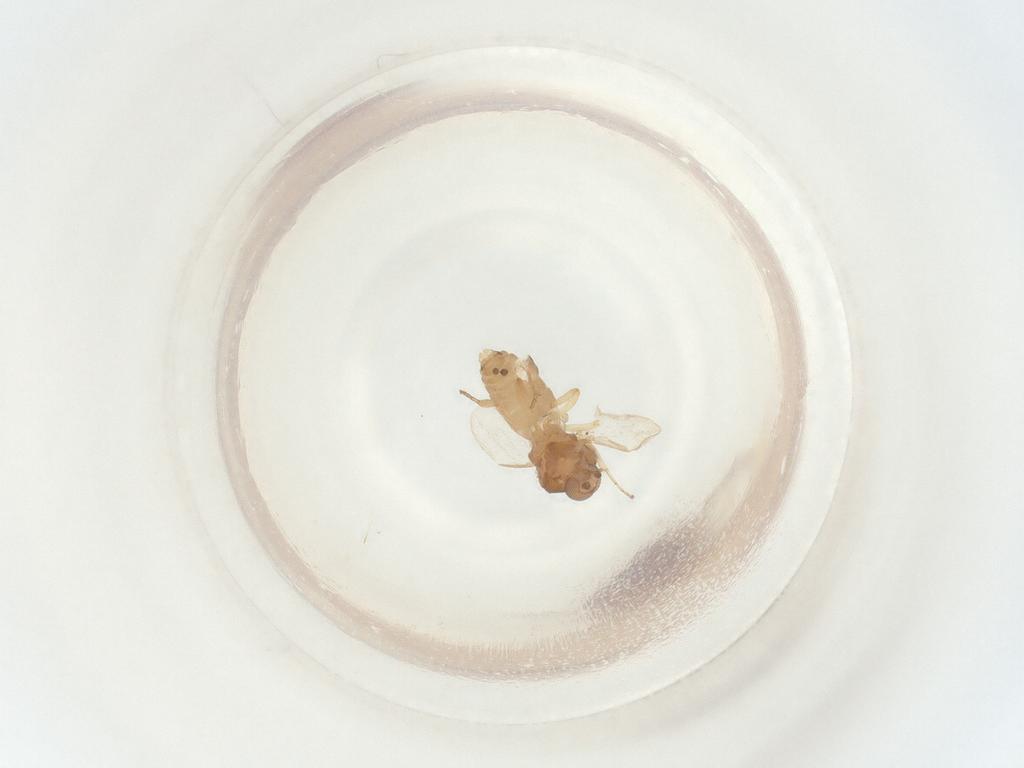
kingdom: Animalia
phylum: Arthropoda
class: Insecta
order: Diptera
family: Ceratopogonidae
